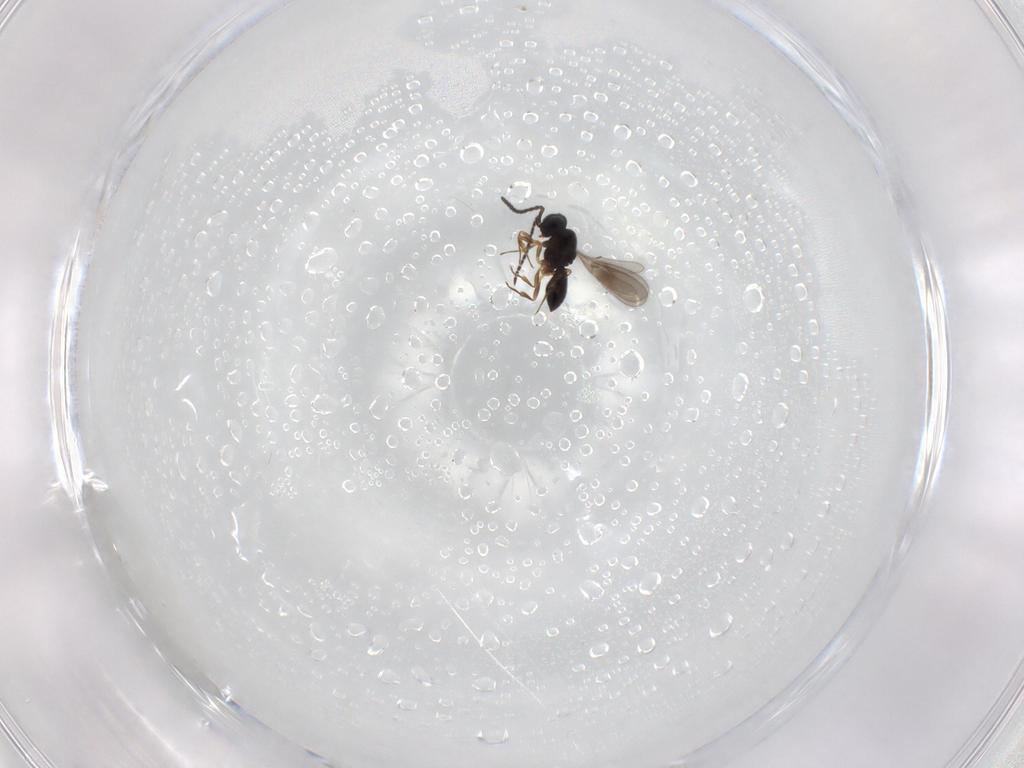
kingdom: Animalia
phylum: Arthropoda
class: Insecta
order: Hymenoptera
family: Scelionidae
